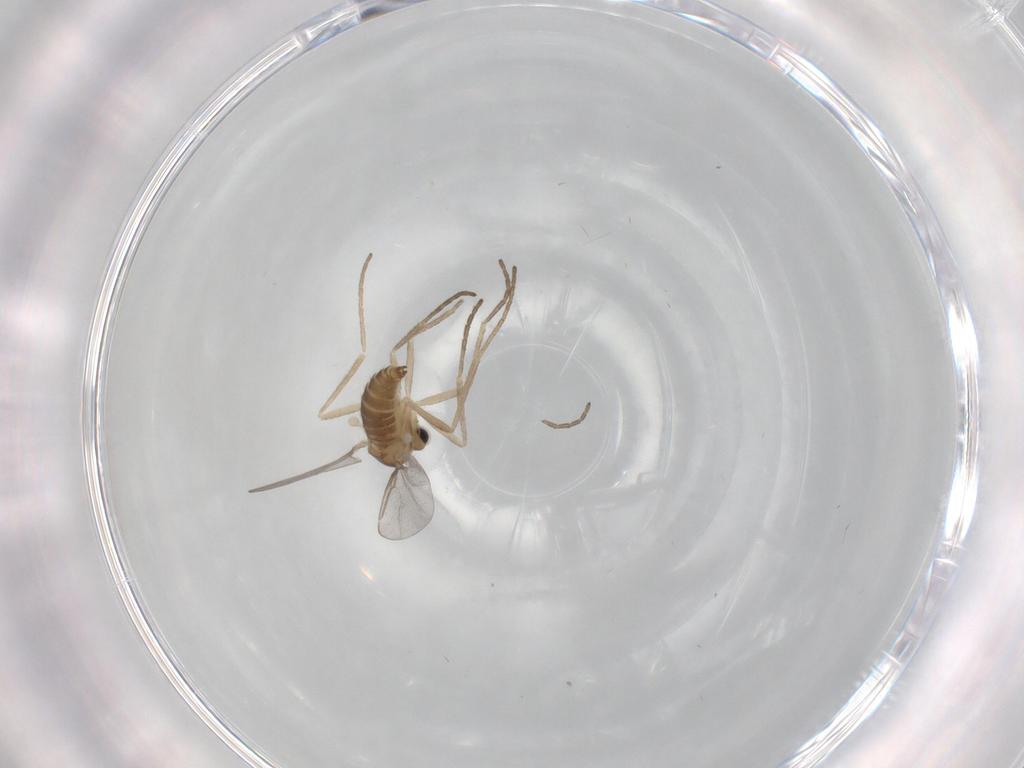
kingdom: Animalia
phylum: Arthropoda
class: Insecta
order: Diptera
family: Cecidomyiidae
